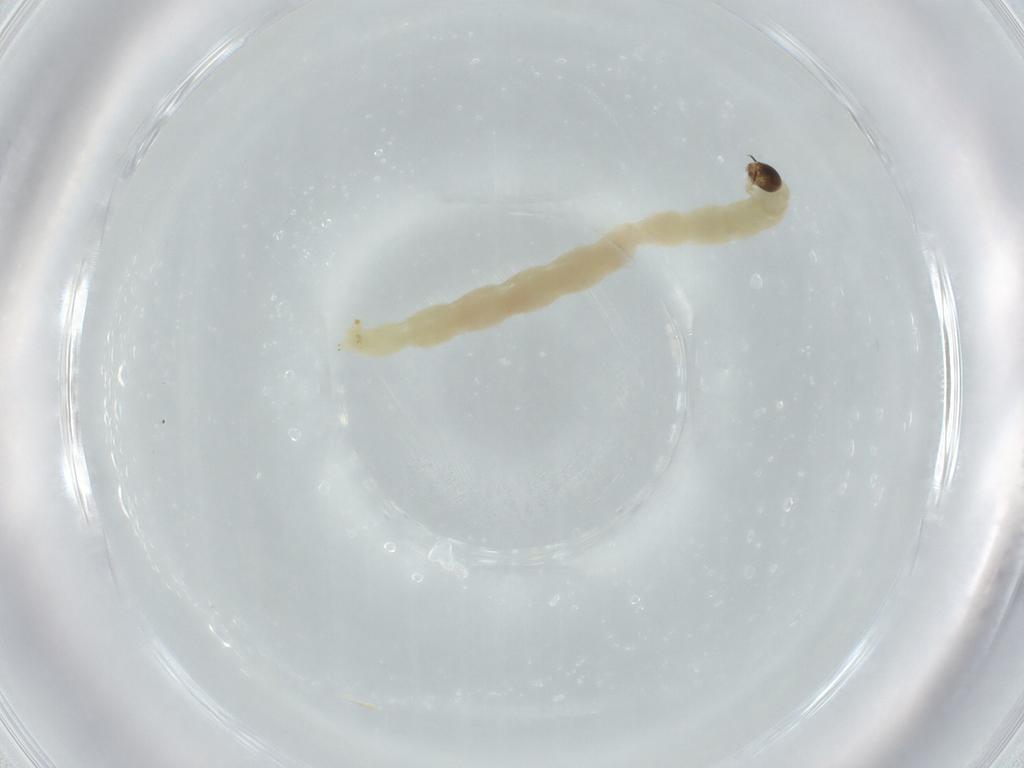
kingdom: Animalia
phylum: Arthropoda
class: Insecta
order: Diptera
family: Chironomidae
